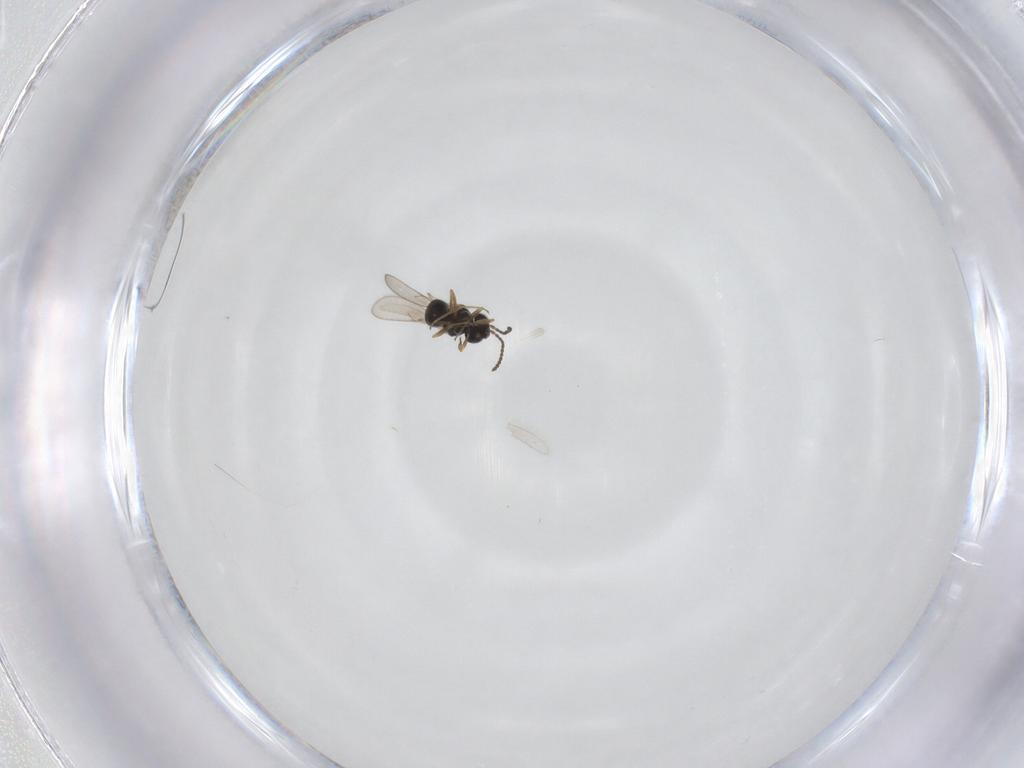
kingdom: Animalia
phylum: Arthropoda
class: Insecta
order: Hymenoptera
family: Scelionidae
